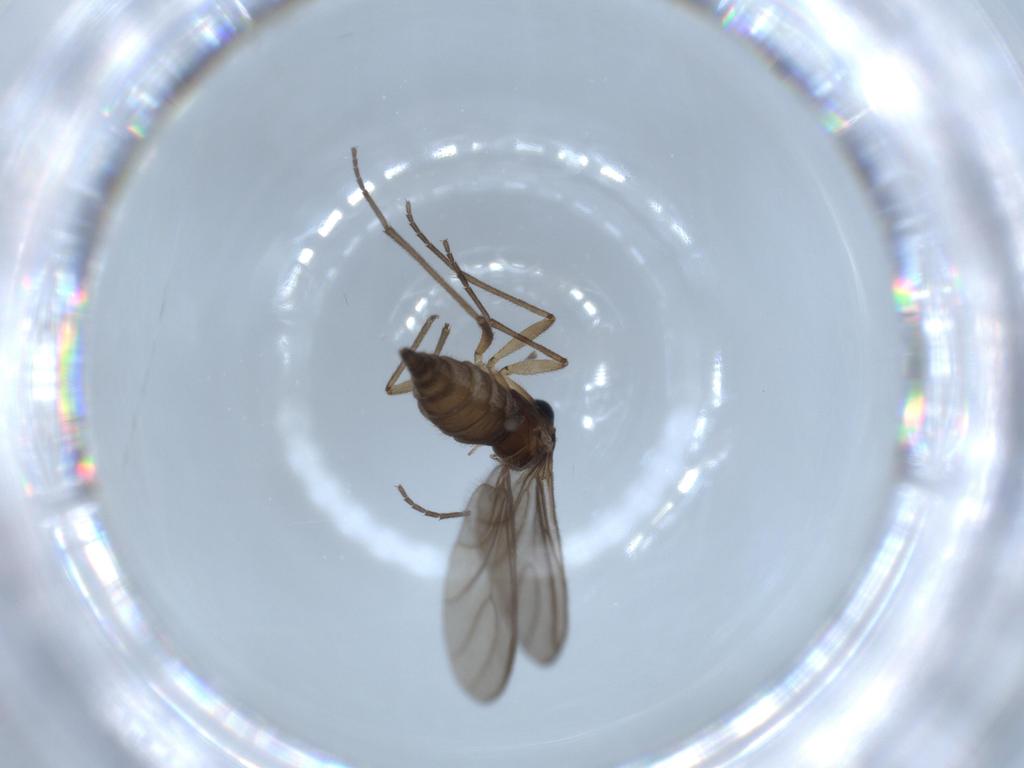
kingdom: Animalia
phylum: Arthropoda
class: Insecta
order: Diptera
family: Sciaridae
